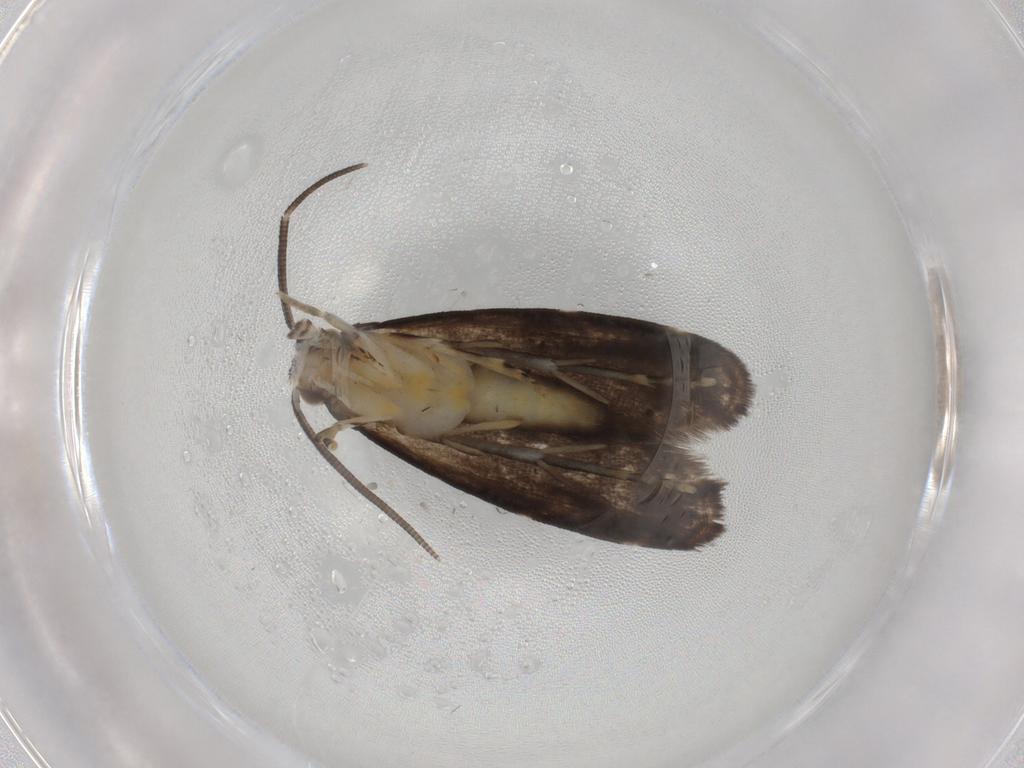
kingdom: Animalia
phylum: Arthropoda
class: Insecta
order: Lepidoptera
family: Dryadaulidae
